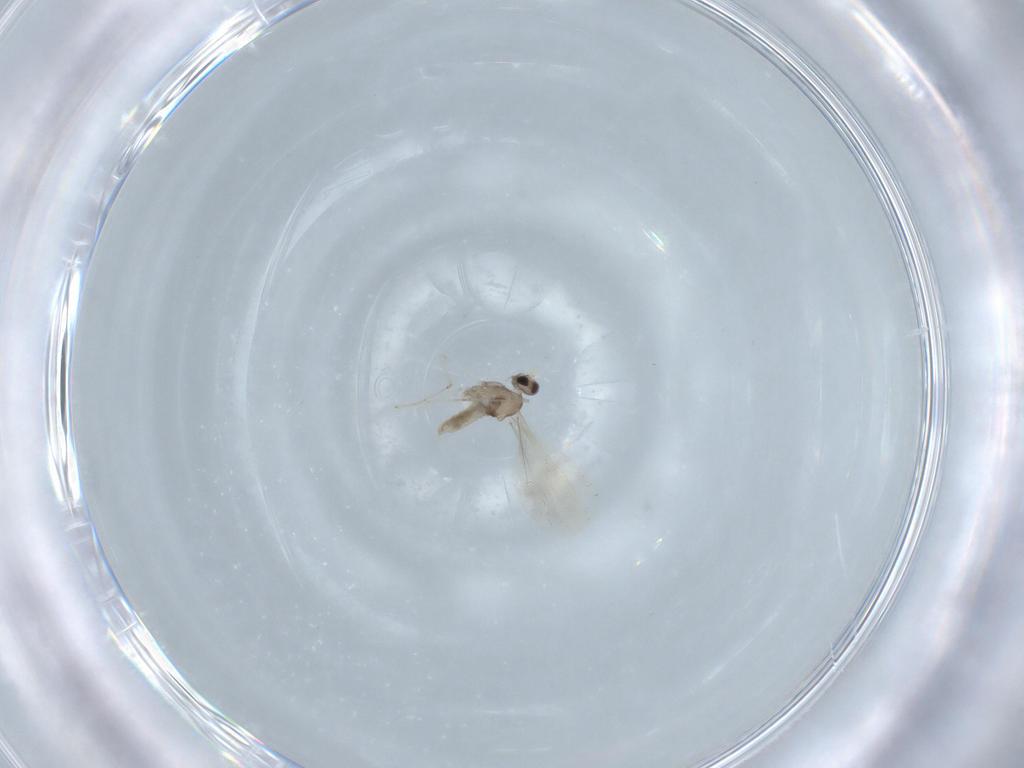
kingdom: Animalia
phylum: Arthropoda
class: Insecta
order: Diptera
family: Cecidomyiidae
